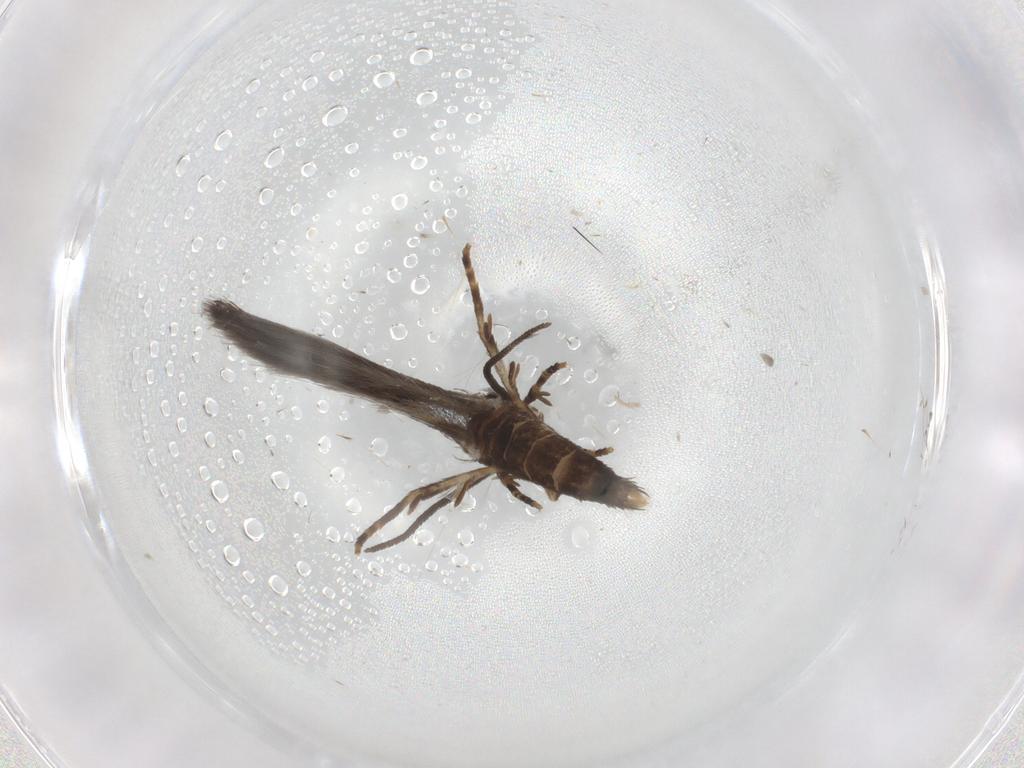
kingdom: Animalia
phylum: Arthropoda
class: Insecta
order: Lepidoptera
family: Elachistidae
